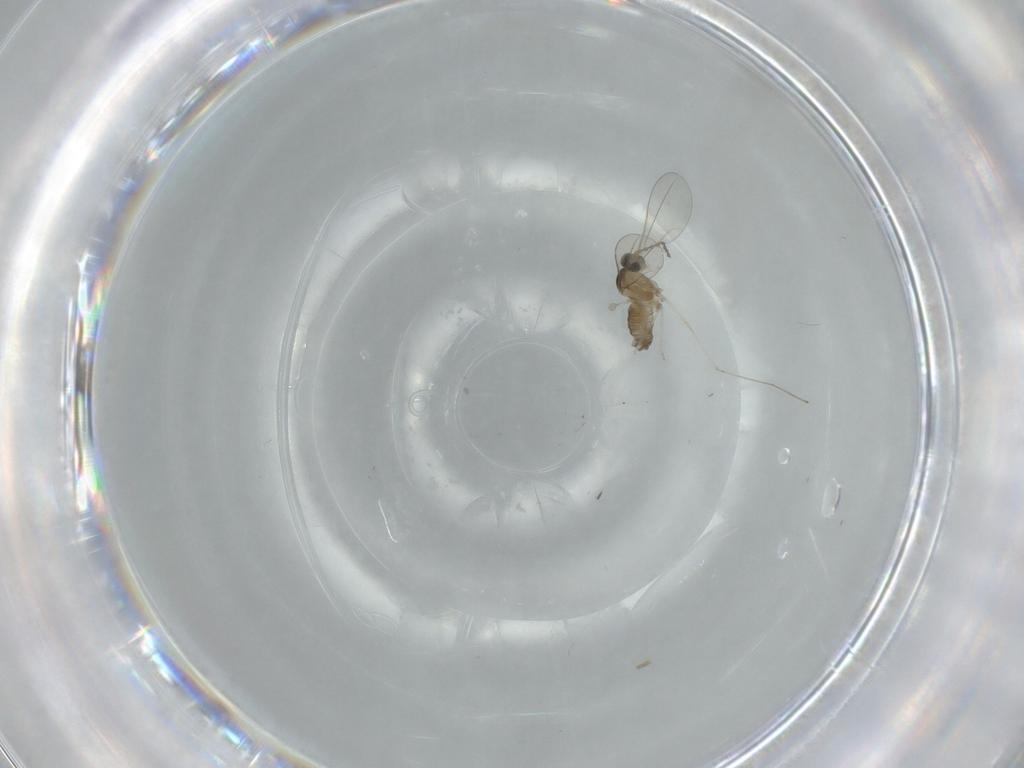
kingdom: Animalia
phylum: Arthropoda
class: Insecta
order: Diptera
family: Cecidomyiidae
